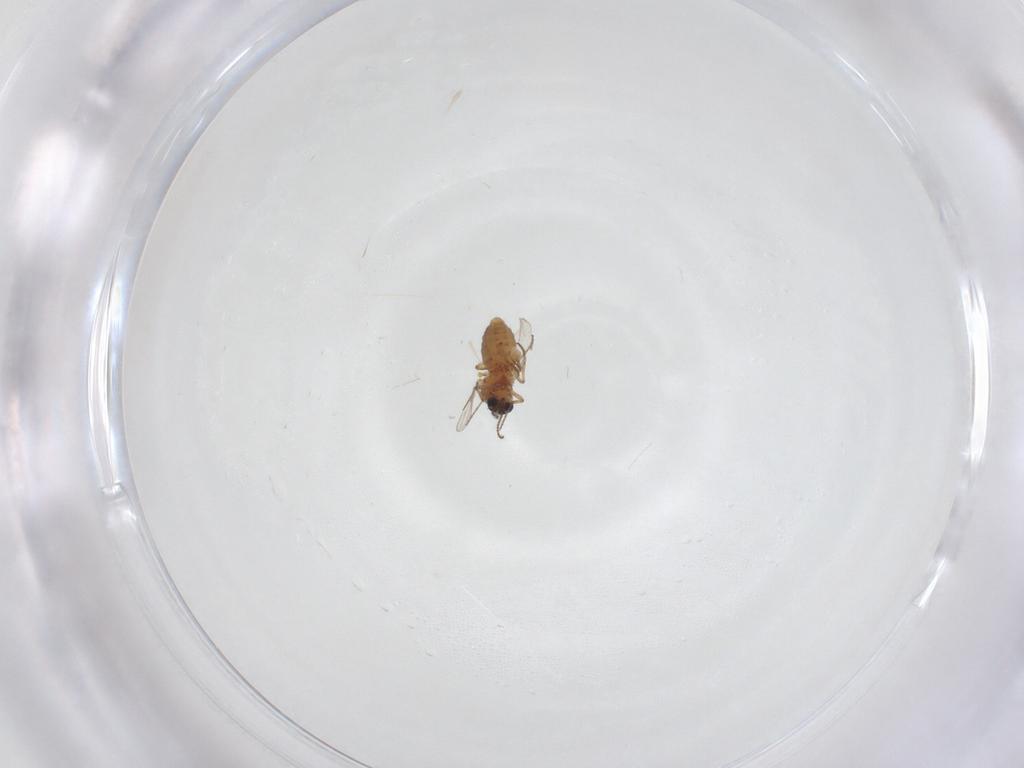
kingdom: Animalia
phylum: Arthropoda
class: Insecta
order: Diptera
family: Ceratopogonidae
